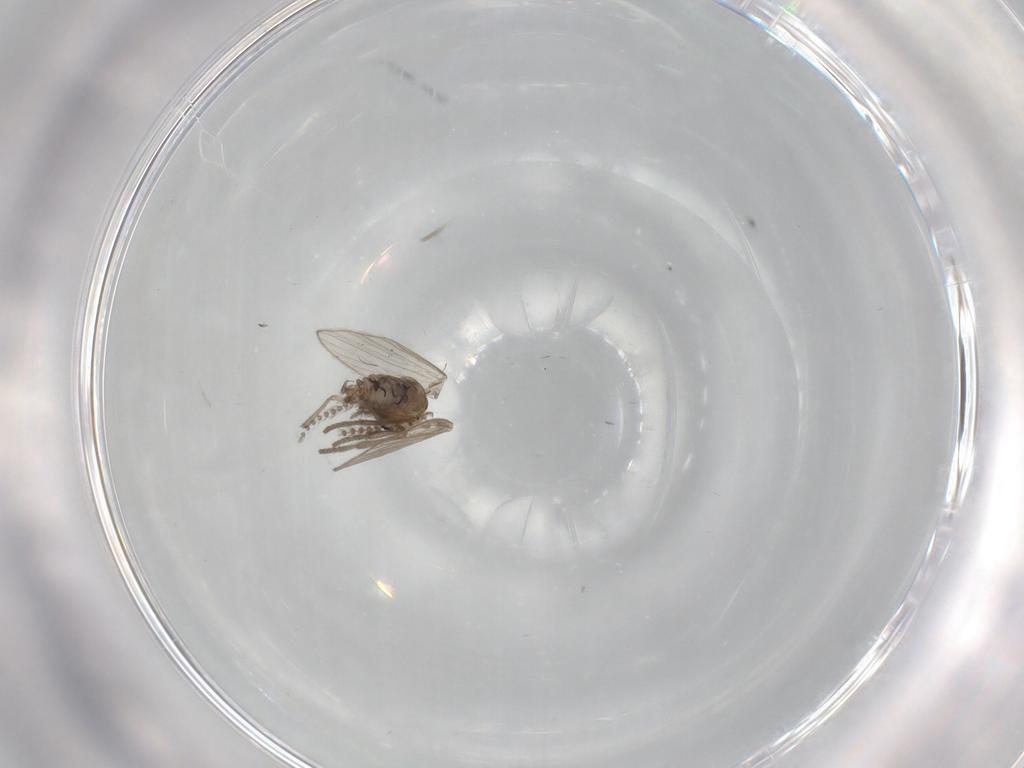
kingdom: Animalia
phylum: Arthropoda
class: Insecta
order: Diptera
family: Psychodidae
